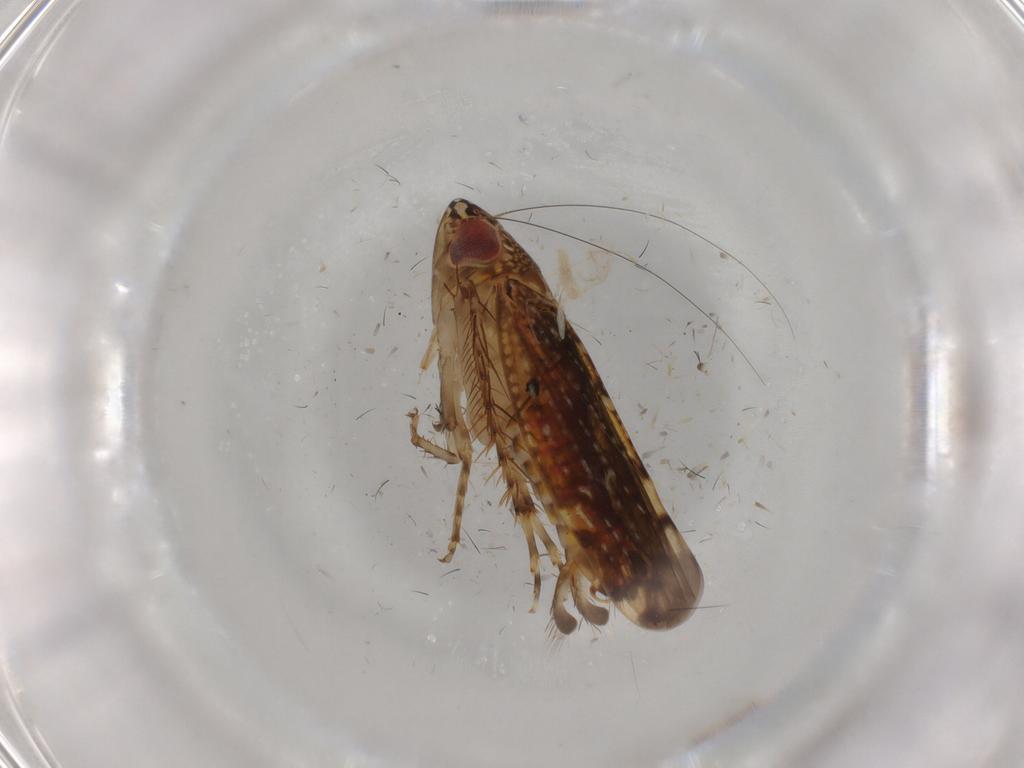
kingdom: Animalia
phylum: Arthropoda
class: Insecta
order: Hemiptera
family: Cicadellidae
